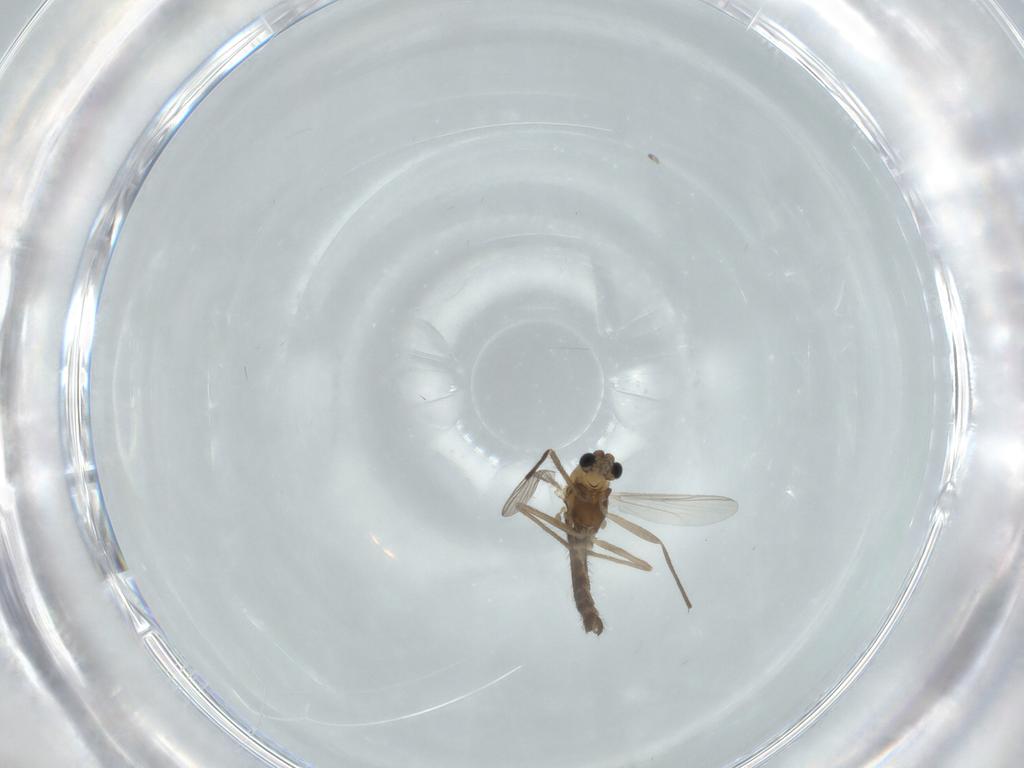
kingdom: Animalia
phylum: Arthropoda
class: Insecta
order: Diptera
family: Chironomidae
